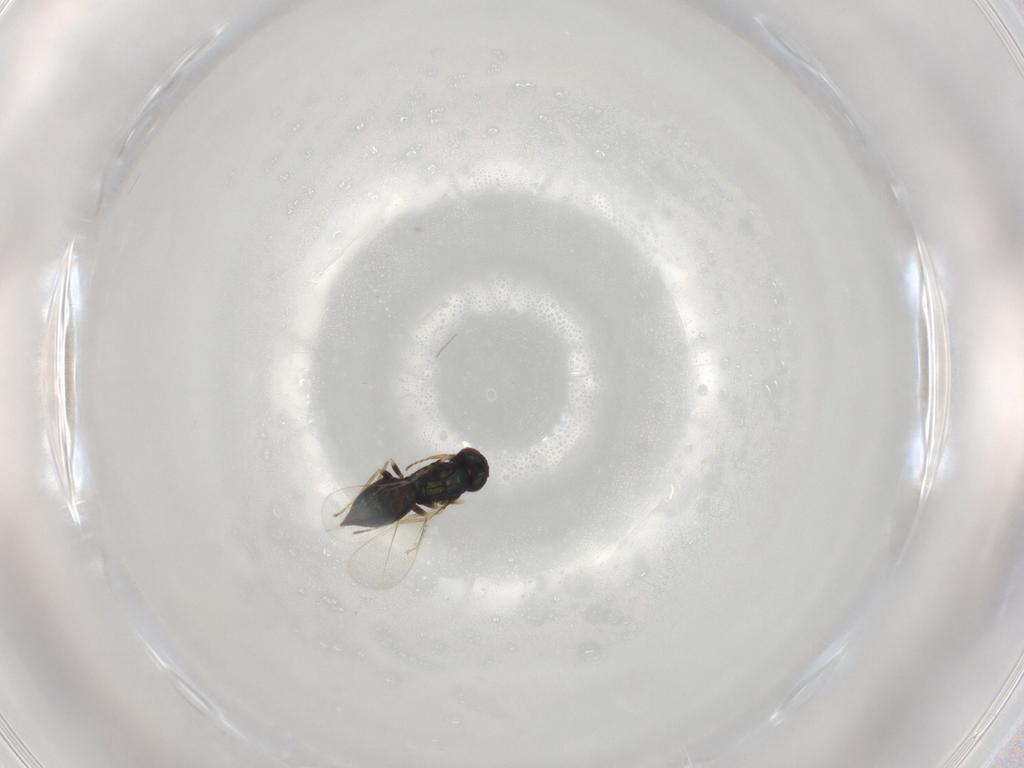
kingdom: Animalia
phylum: Arthropoda
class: Insecta
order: Hymenoptera
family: Eulophidae
